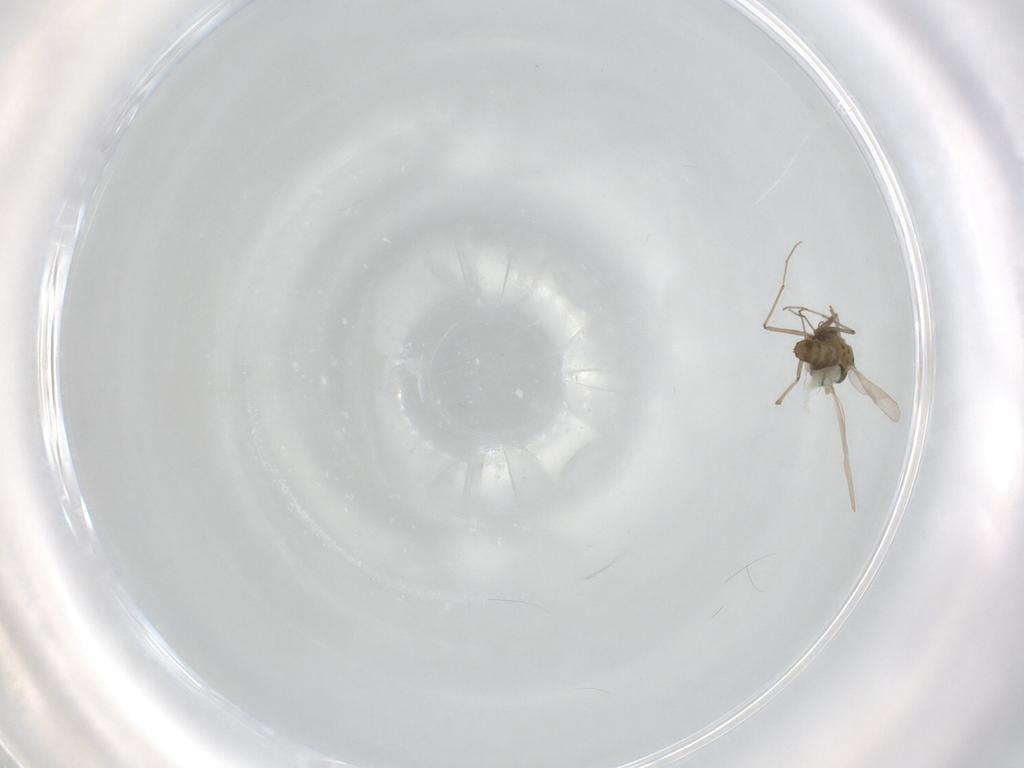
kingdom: Animalia
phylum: Arthropoda
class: Insecta
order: Diptera
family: Chironomidae
